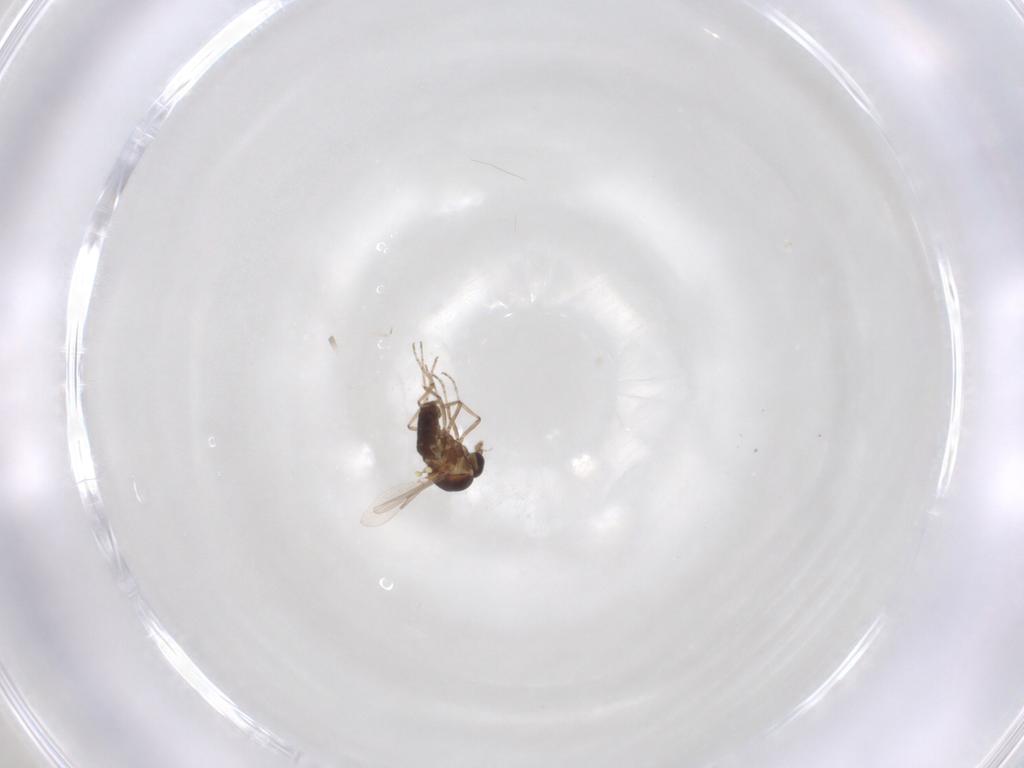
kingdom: Animalia
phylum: Arthropoda
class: Insecta
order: Diptera
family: Ceratopogonidae
